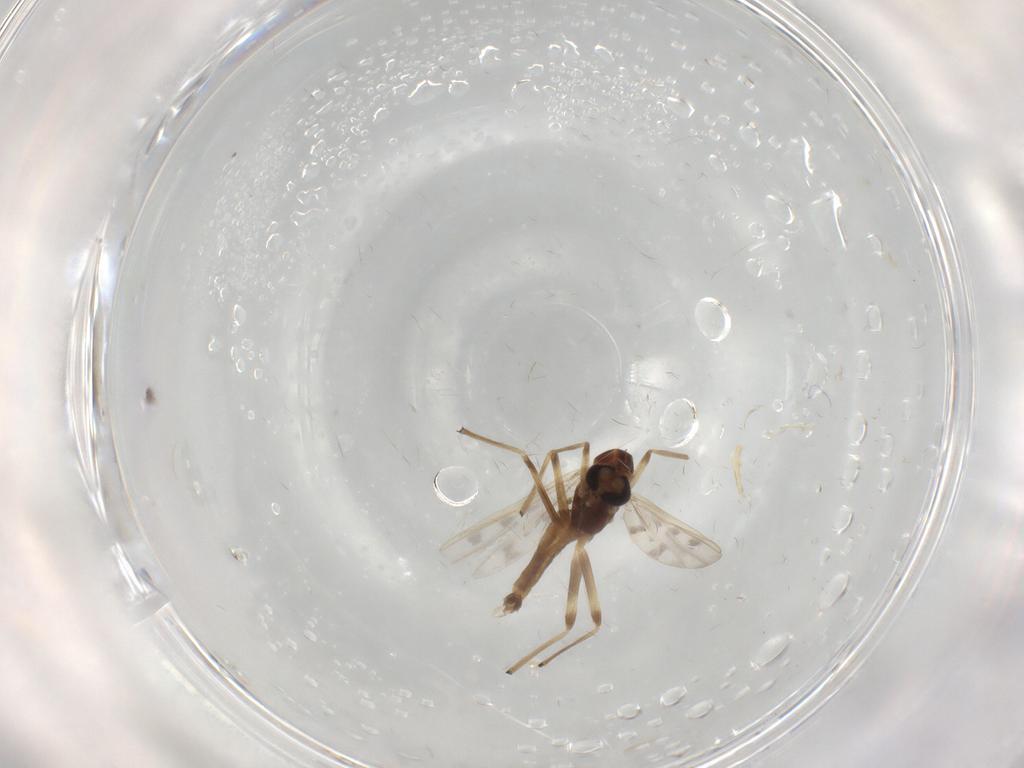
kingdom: Animalia
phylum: Arthropoda
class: Insecta
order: Diptera
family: Chironomidae
